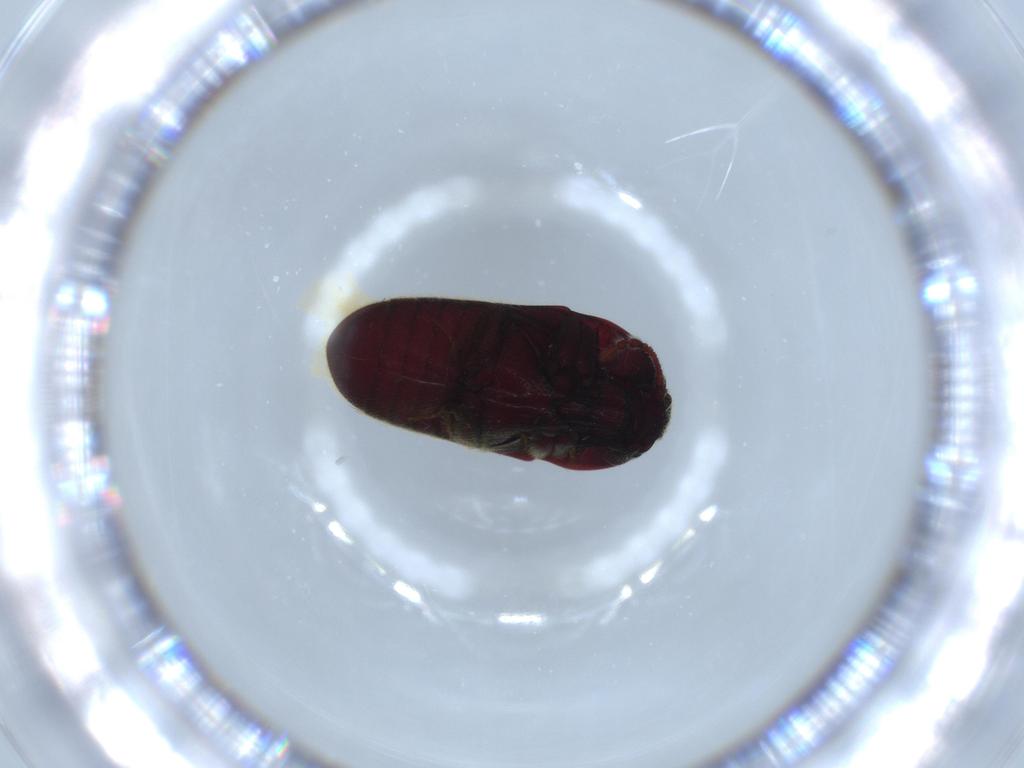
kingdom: Animalia
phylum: Arthropoda
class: Insecta
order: Coleoptera
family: Throscidae
